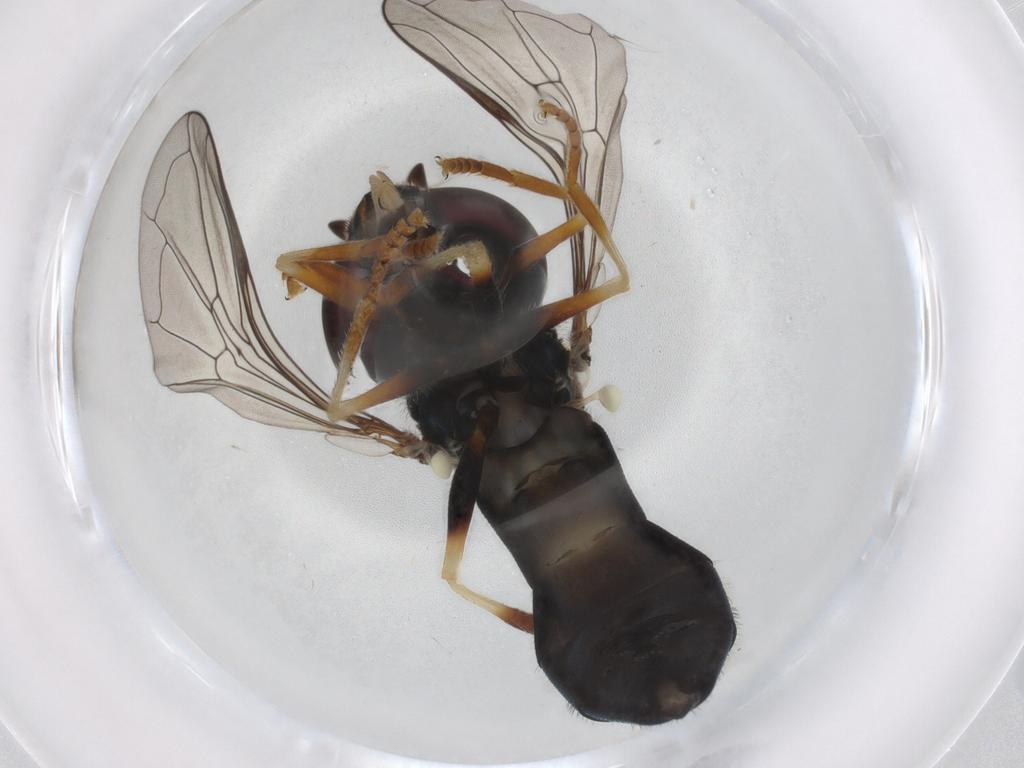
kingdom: Animalia
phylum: Arthropoda
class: Insecta
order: Diptera
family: Syrphidae
